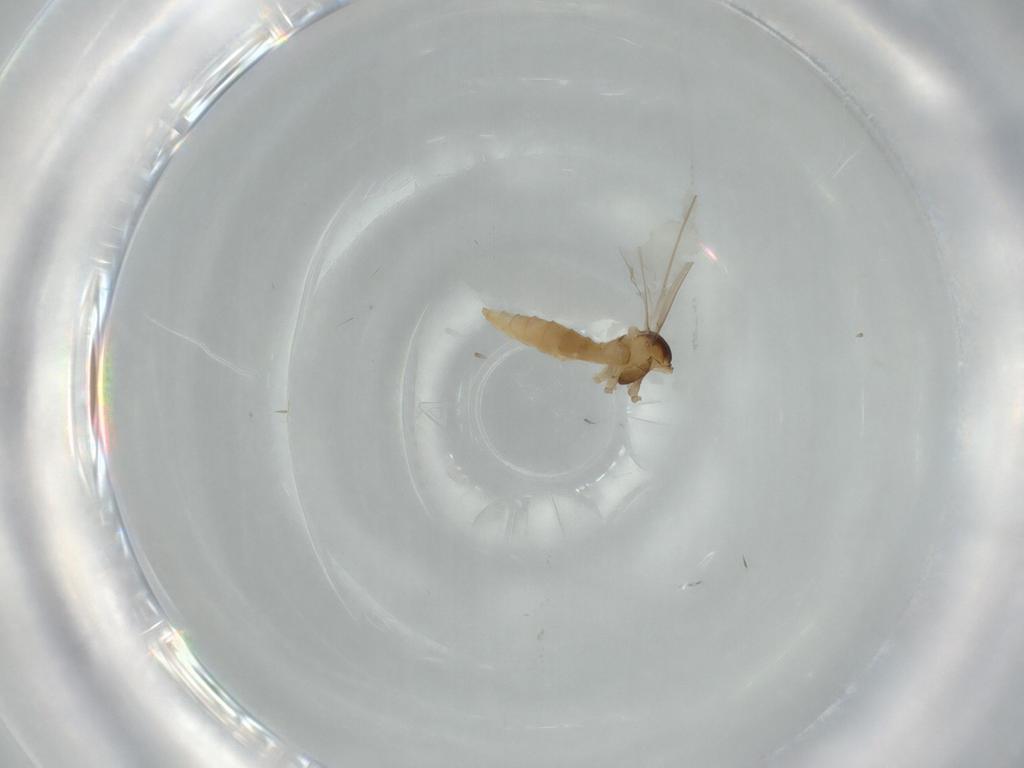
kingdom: Animalia
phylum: Arthropoda
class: Insecta
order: Diptera
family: Cecidomyiidae
